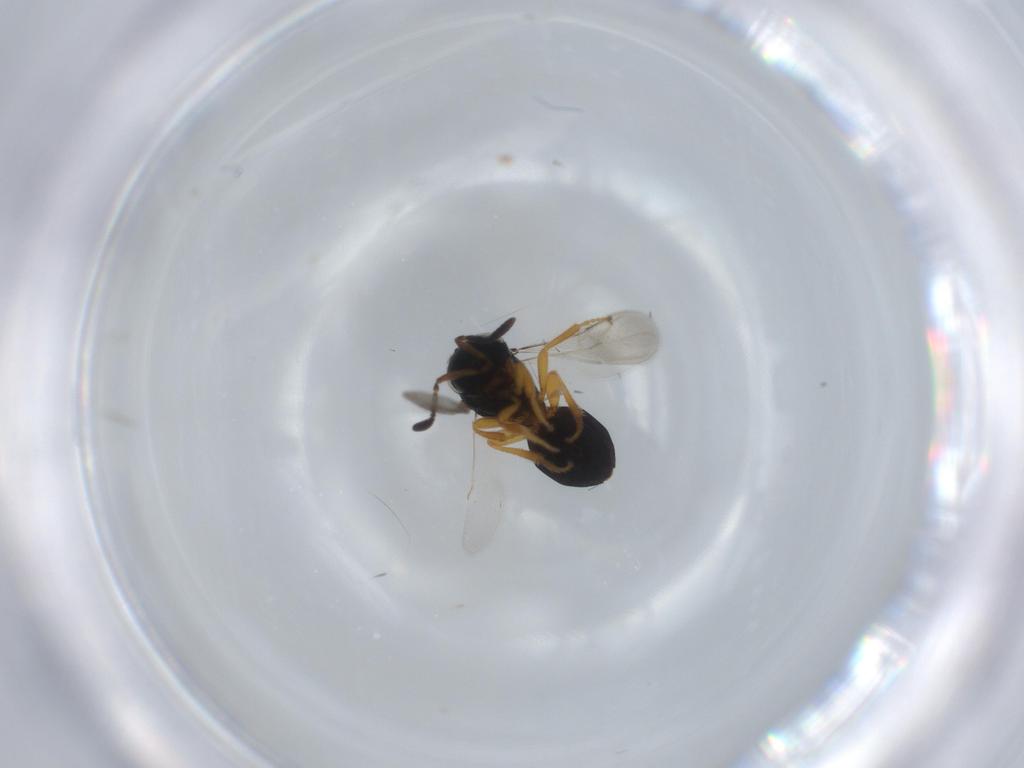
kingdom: Animalia
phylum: Arthropoda
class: Insecta
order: Hymenoptera
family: Scelionidae
